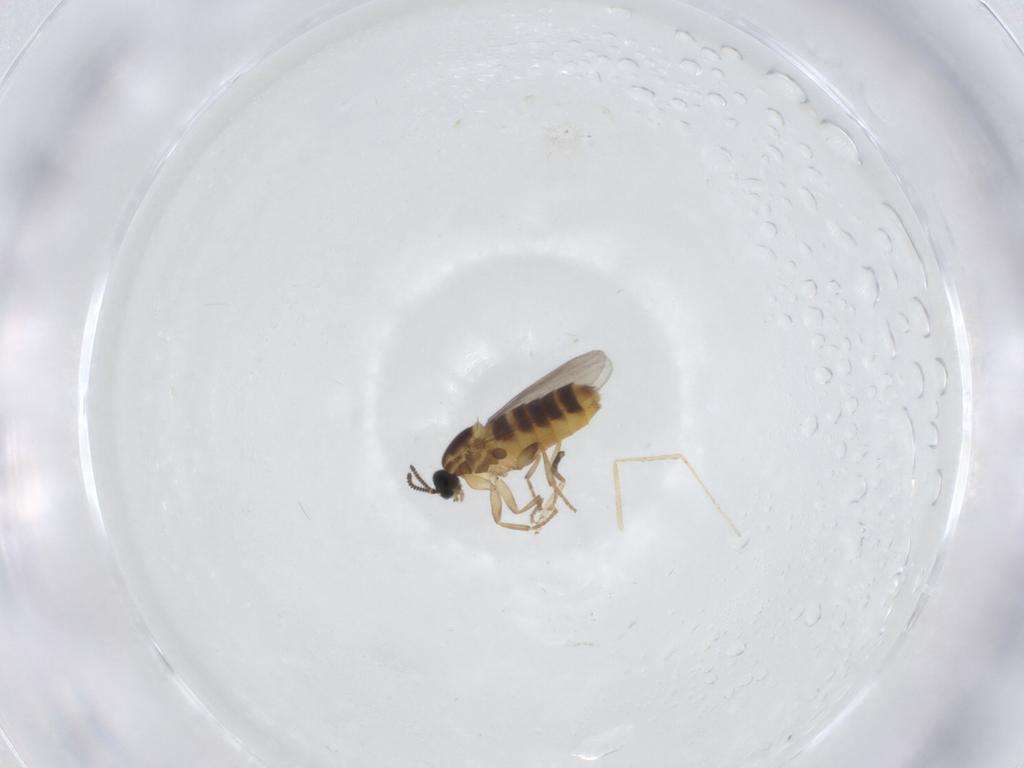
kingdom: Animalia
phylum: Arthropoda
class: Insecta
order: Diptera
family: Scatopsidae
